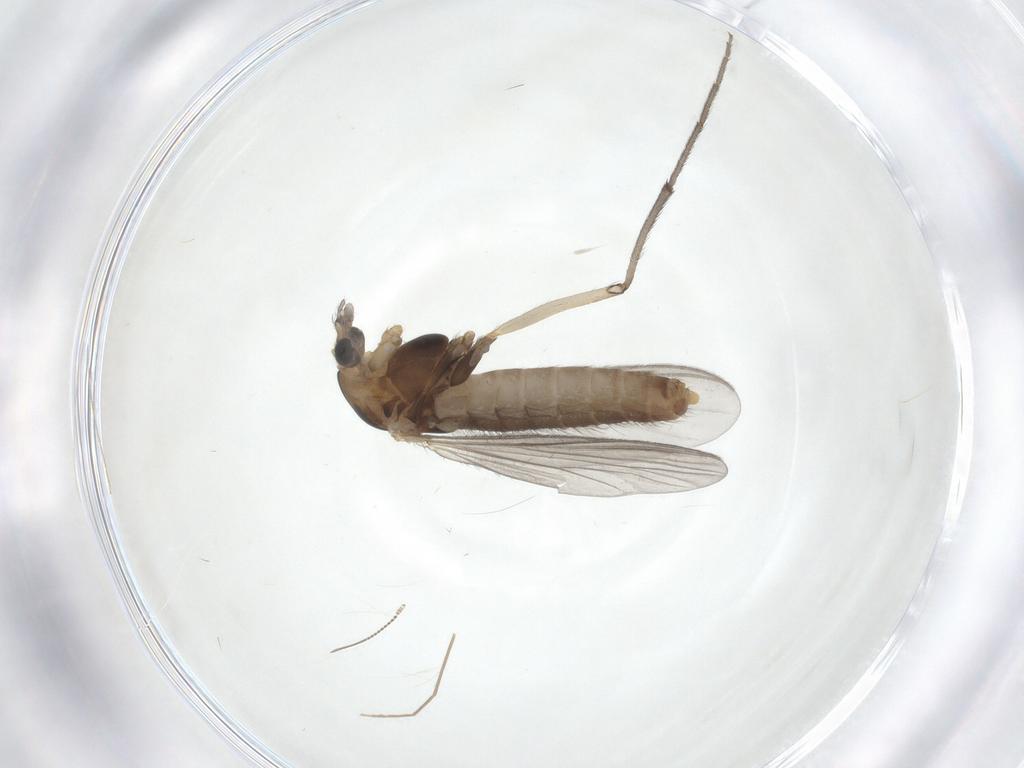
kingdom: Animalia
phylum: Arthropoda
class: Insecta
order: Diptera
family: Chironomidae
